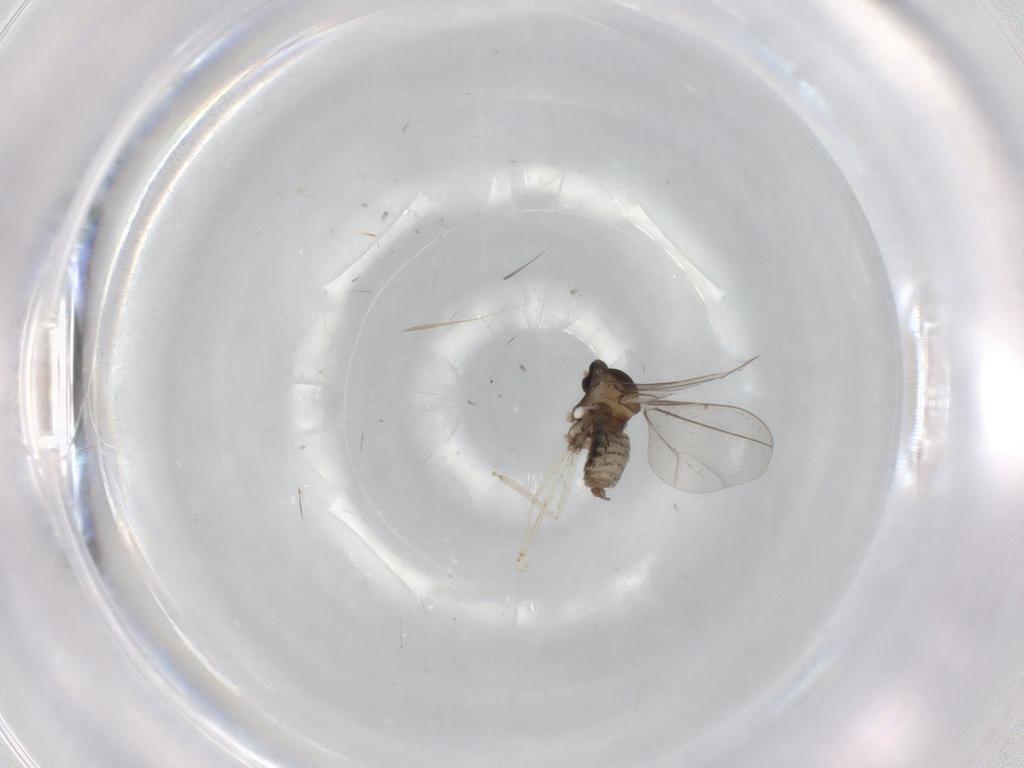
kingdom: Animalia
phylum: Arthropoda
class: Insecta
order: Diptera
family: Cecidomyiidae
